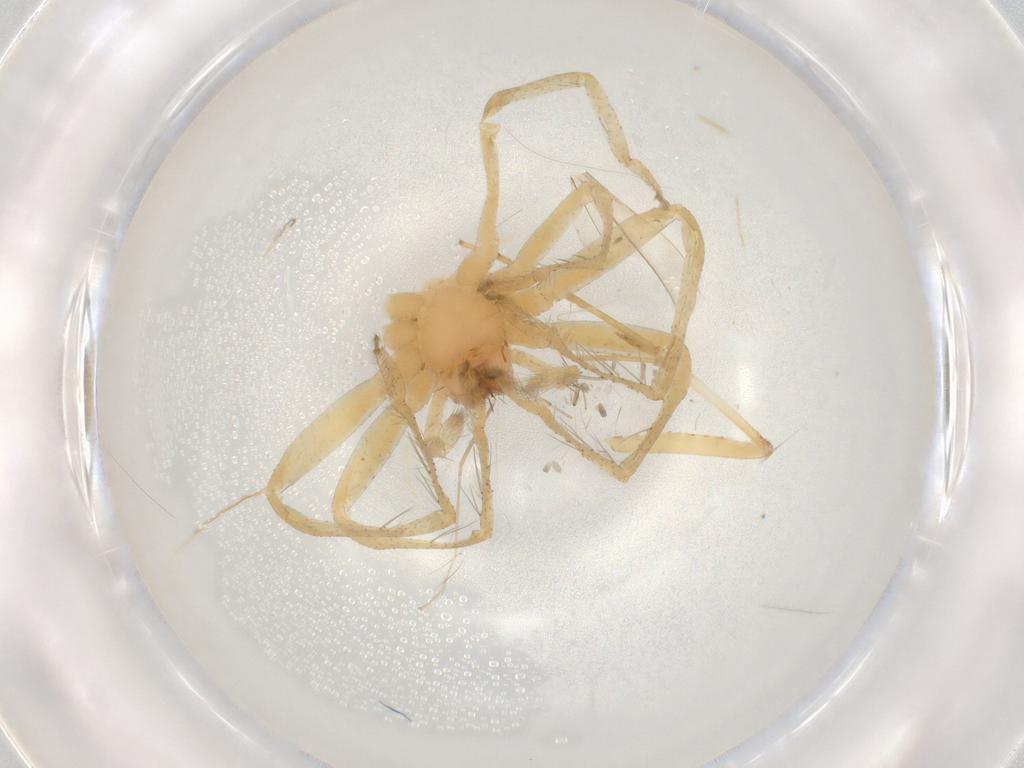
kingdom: Animalia
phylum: Arthropoda
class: Arachnida
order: Araneae
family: Sparassidae
